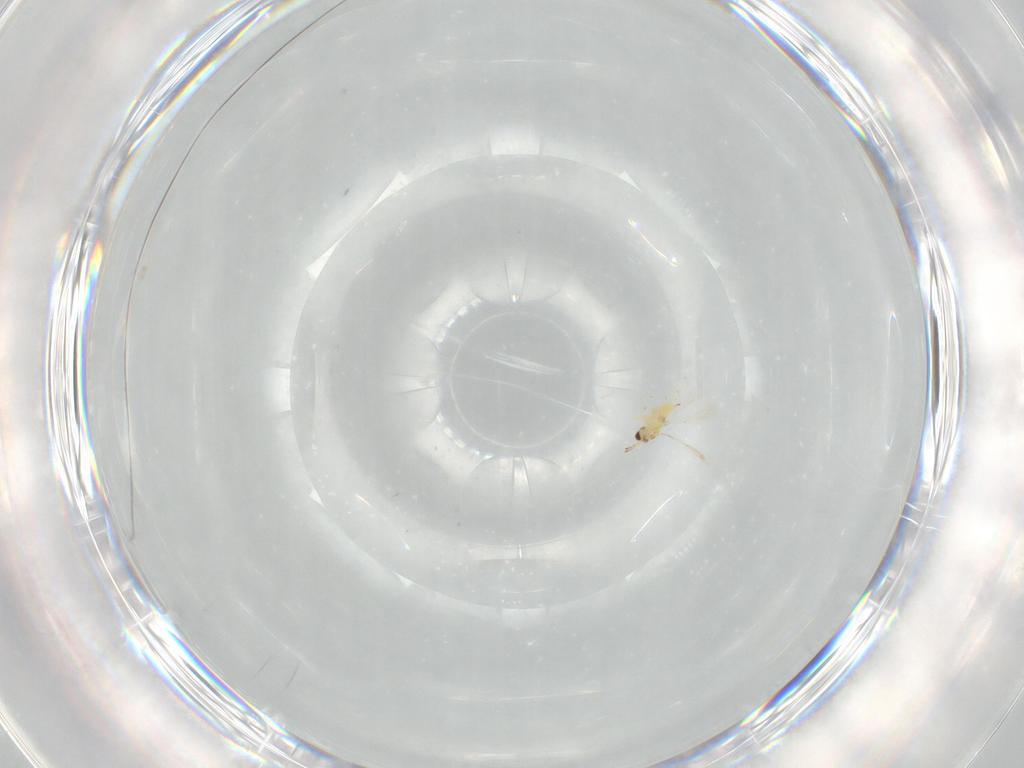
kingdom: Animalia
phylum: Arthropoda
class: Insecta
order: Hymenoptera
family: Mymaridae
